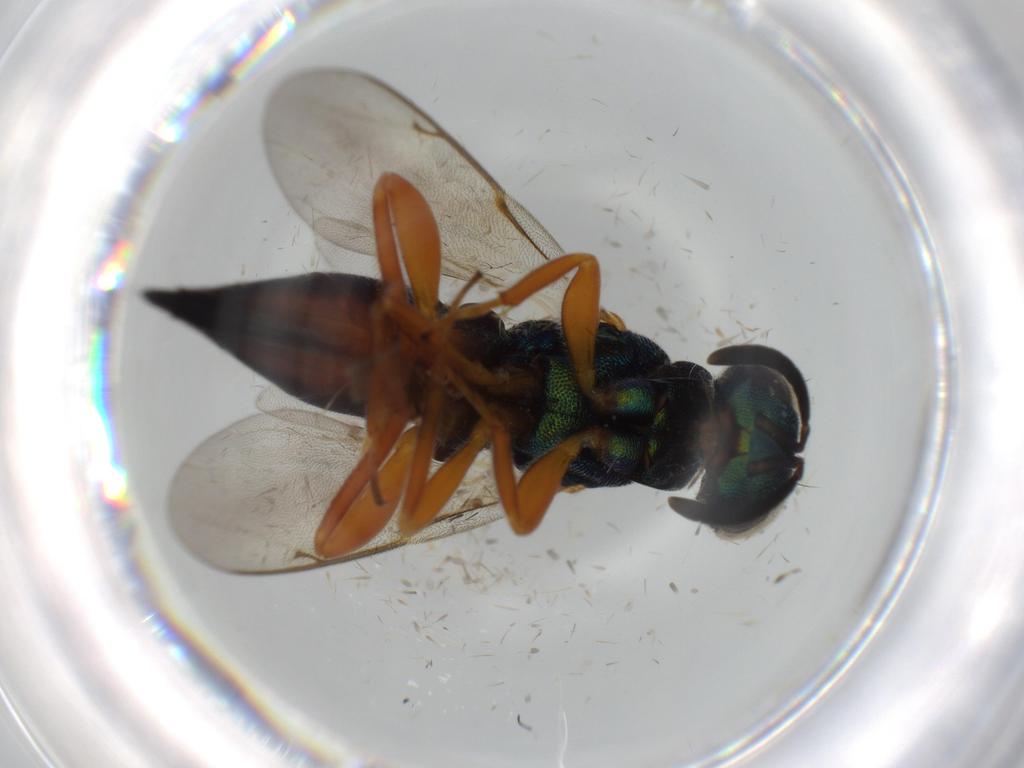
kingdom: Animalia
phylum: Arthropoda
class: Insecta
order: Hymenoptera
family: Lyciscidae
